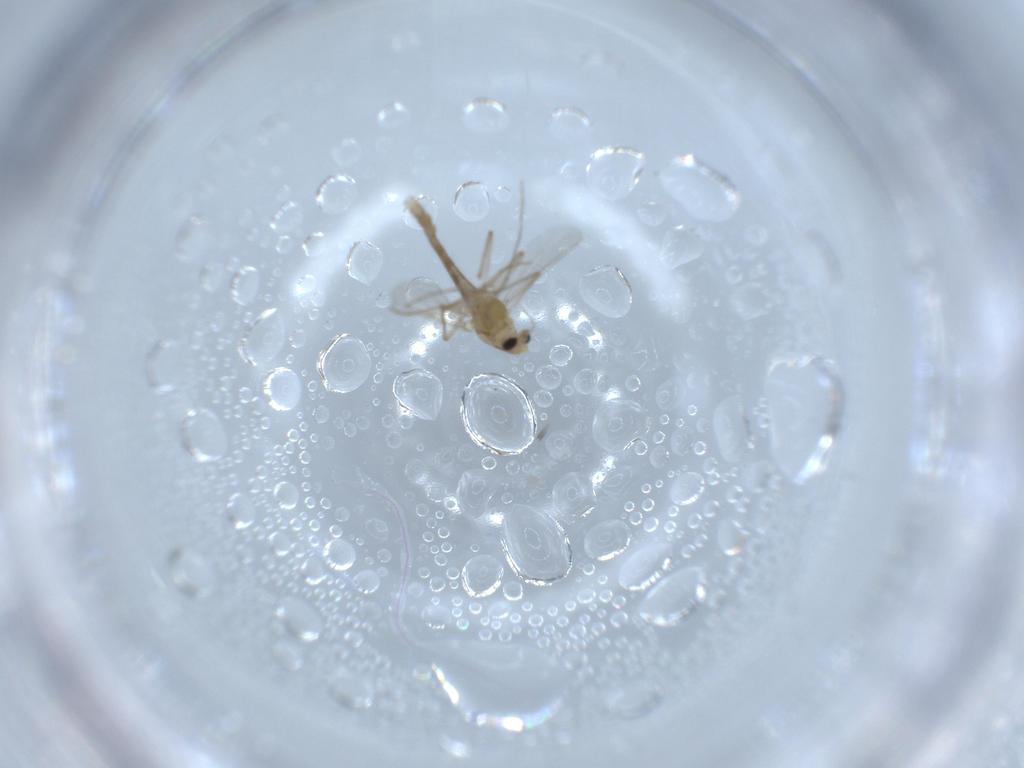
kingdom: Animalia
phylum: Arthropoda
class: Insecta
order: Diptera
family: Chironomidae
